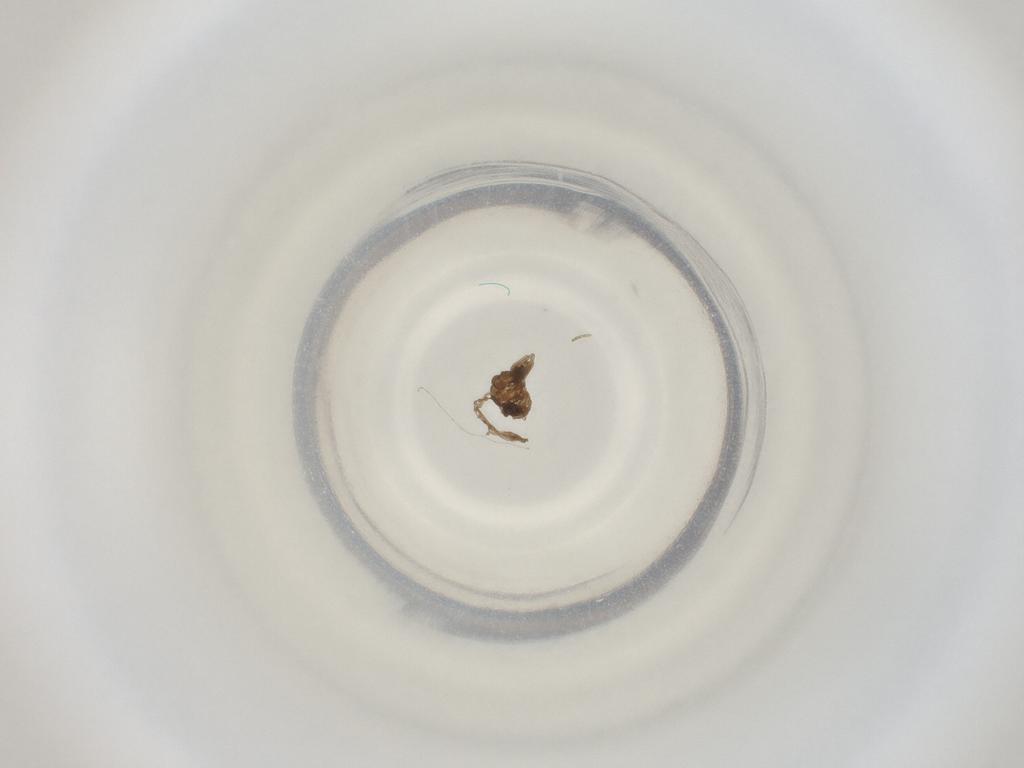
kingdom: Animalia
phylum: Arthropoda
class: Insecta
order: Diptera
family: Cecidomyiidae
